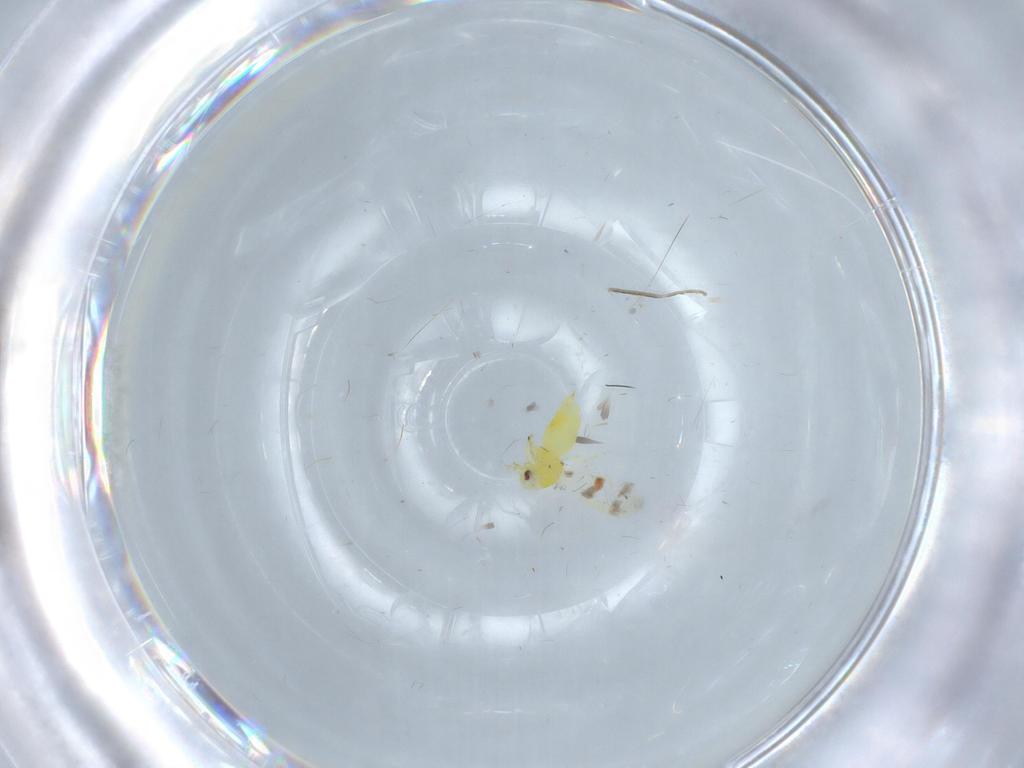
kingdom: Animalia
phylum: Arthropoda
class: Insecta
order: Hemiptera
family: Aleyrodidae
